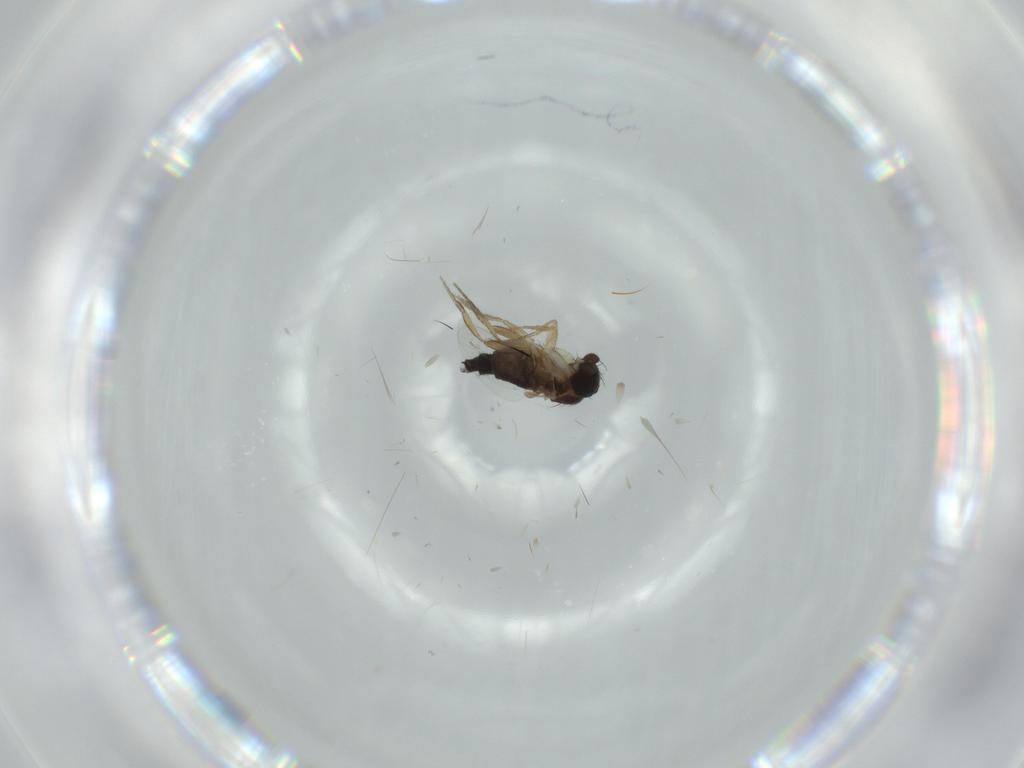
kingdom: Animalia
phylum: Arthropoda
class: Insecta
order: Diptera
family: Phoridae
